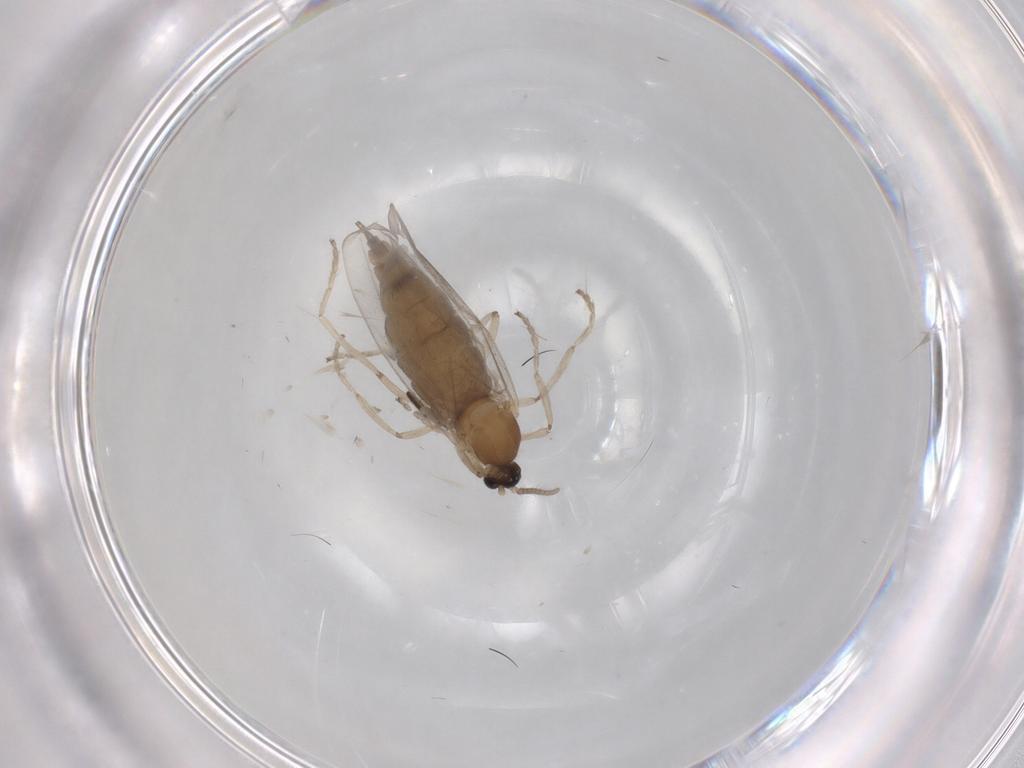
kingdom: Animalia
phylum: Arthropoda
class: Insecta
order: Diptera
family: Cecidomyiidae
